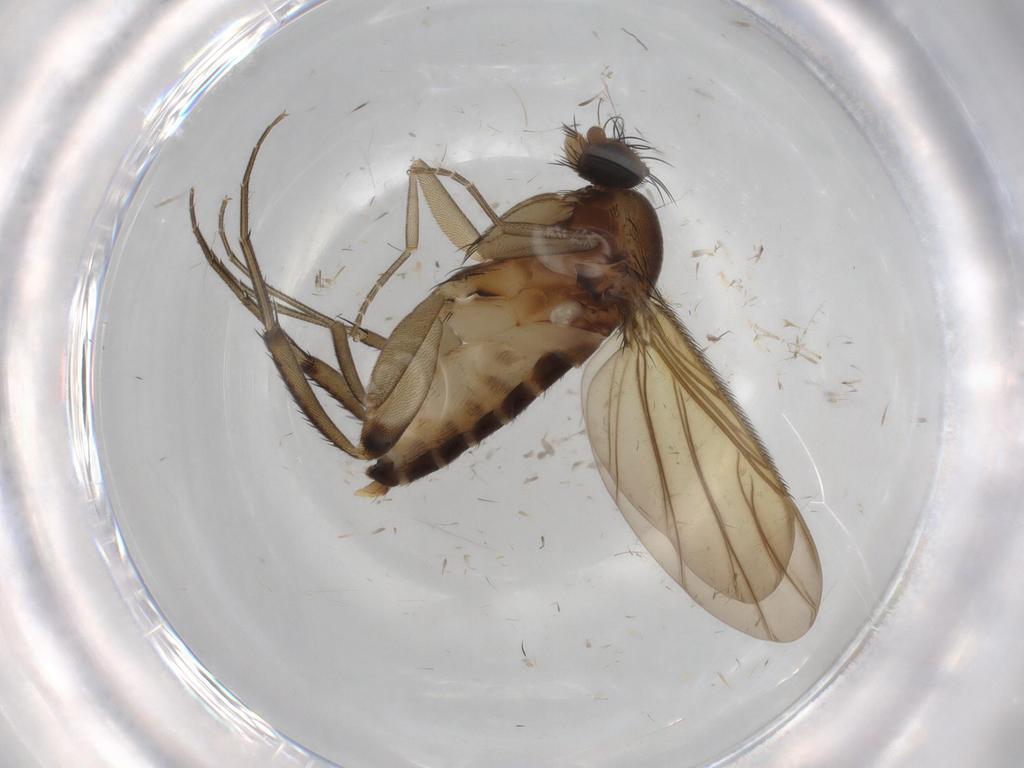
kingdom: Animalia
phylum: Arthropoda
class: Insecta
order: Diptera
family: Phoridae
